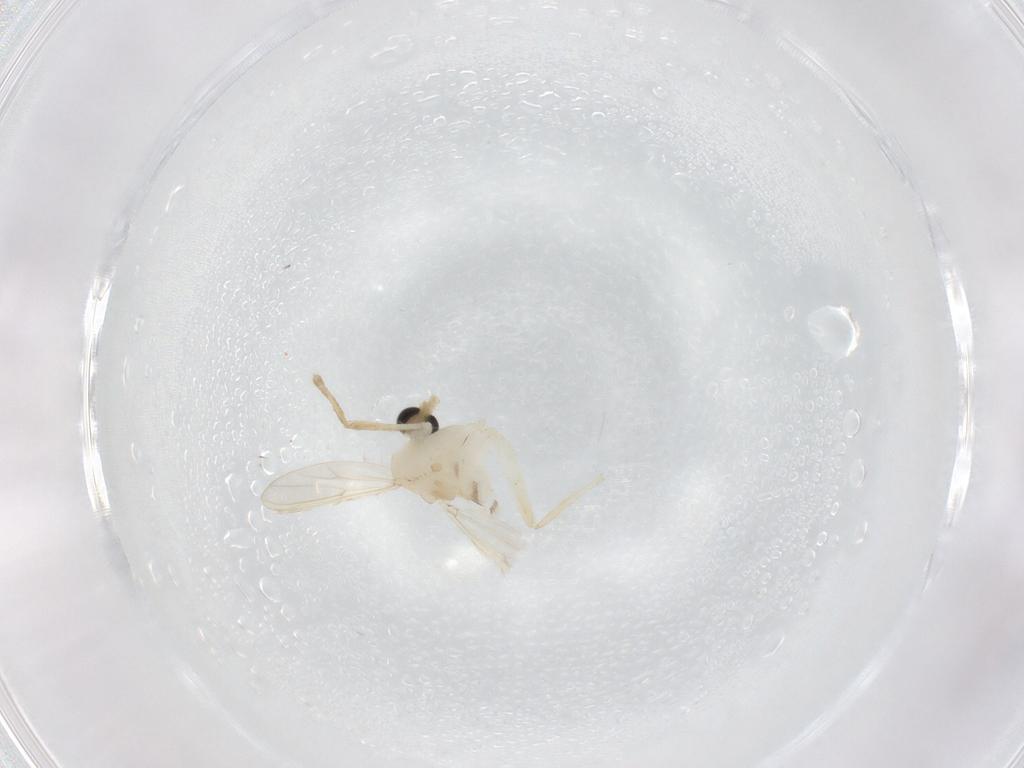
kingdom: Animalia
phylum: Arthropoda
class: Insecta
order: Diptera
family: Chironomidae
